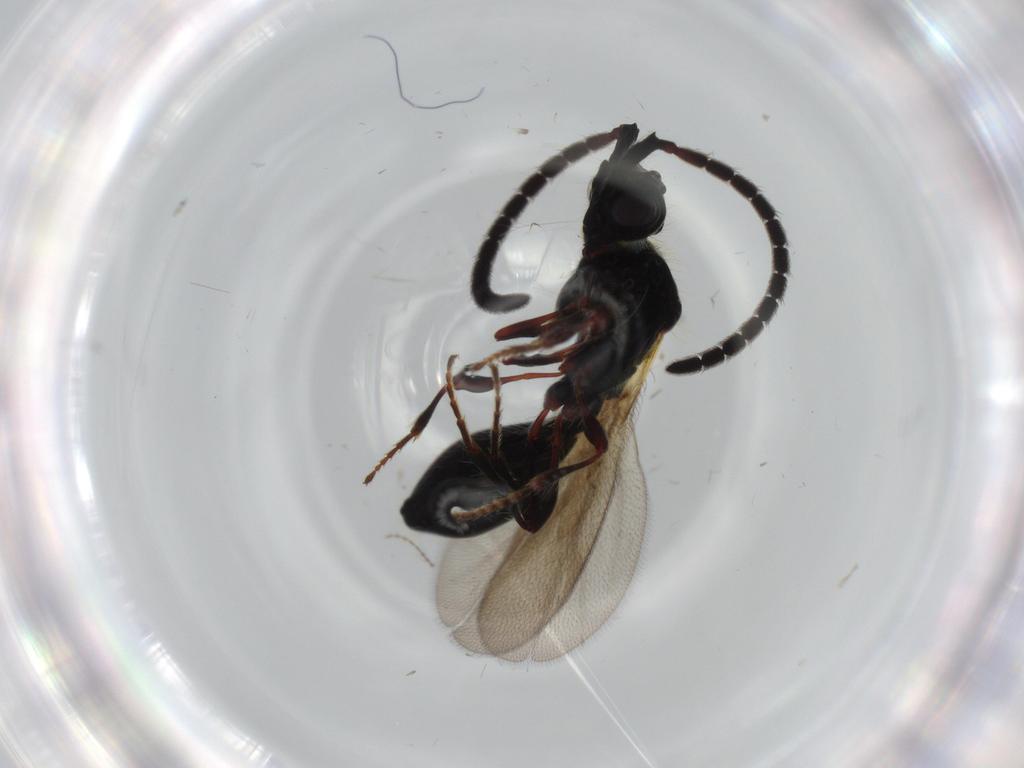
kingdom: Animalia
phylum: Arthropoda
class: Insecta
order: Hymenoptera
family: Diapriidae
